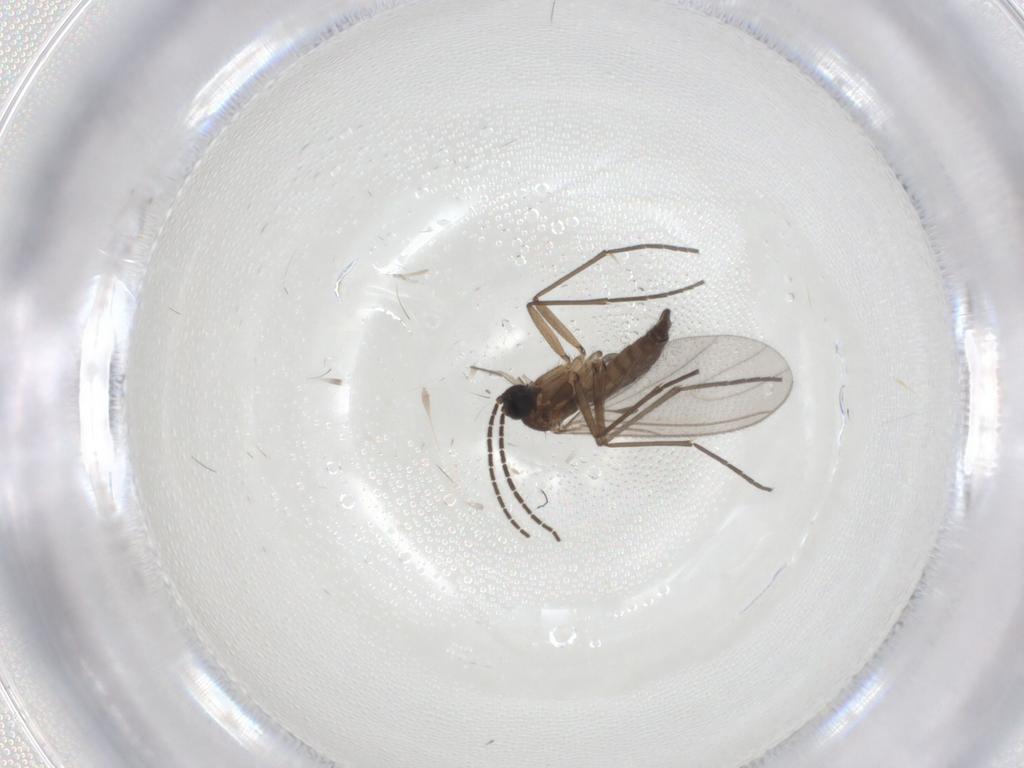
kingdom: Animalia
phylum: Arthropoda
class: Insecta
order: Diptera
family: Sciaridae
